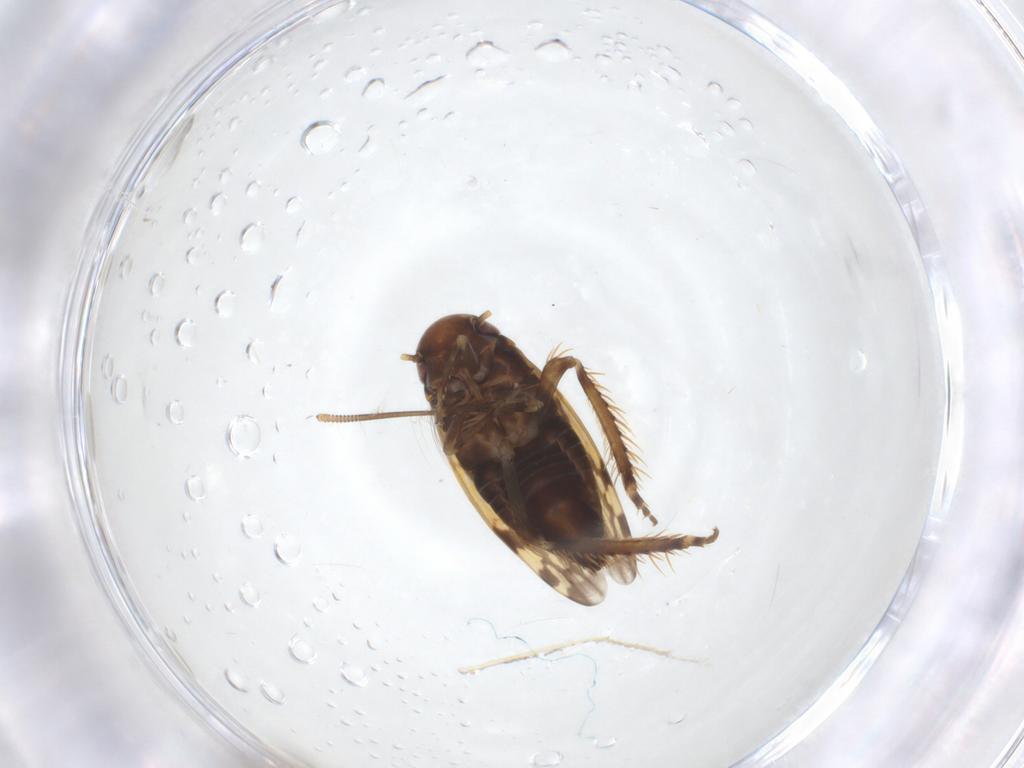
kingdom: Animalia
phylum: Arthropoda
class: Insecta
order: Hemiptera
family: Cicadellidae
